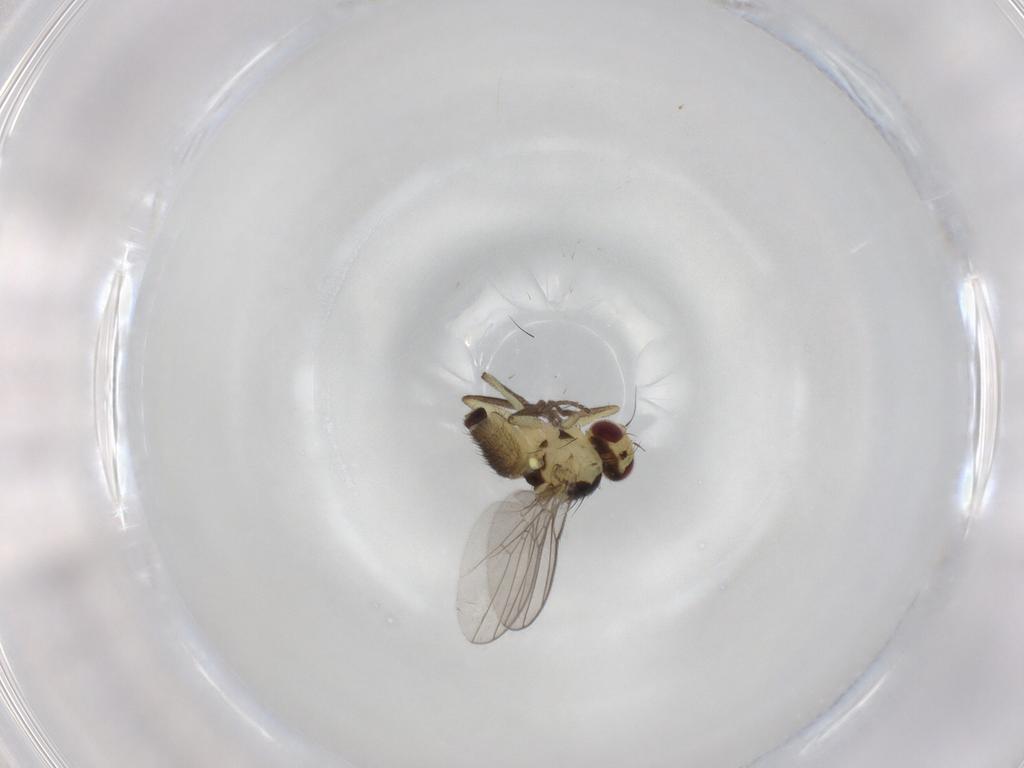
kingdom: Animalia
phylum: Arthropoda
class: Insecta
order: Diptera
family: Agromyzidae
